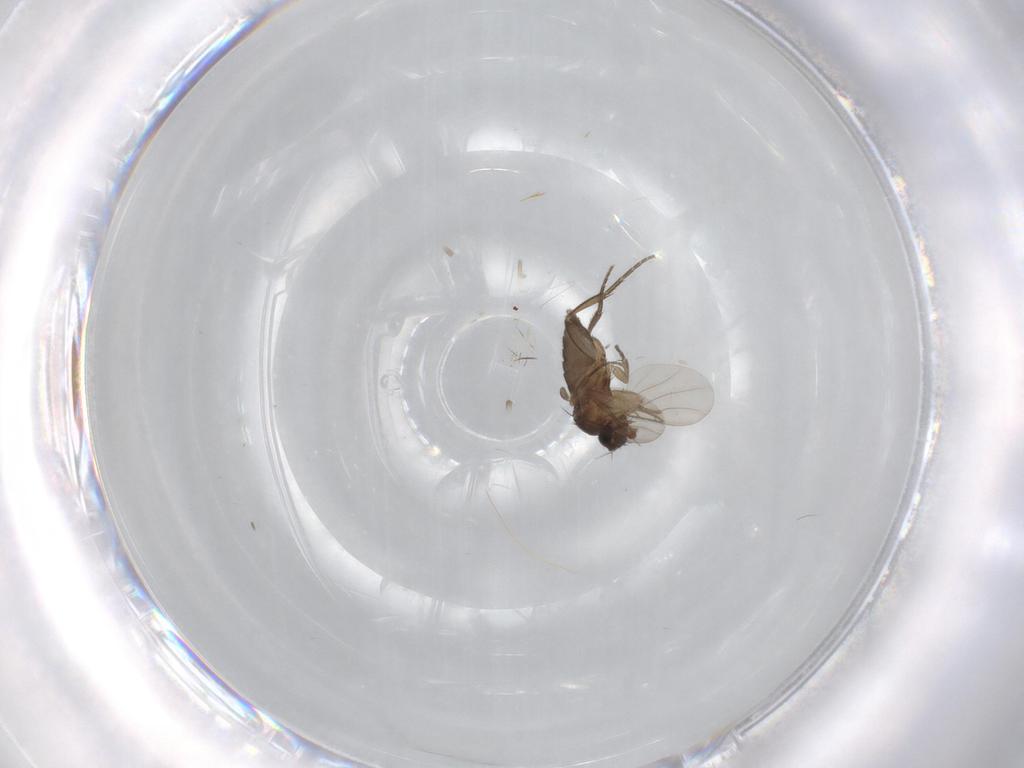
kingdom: Animalia
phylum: Arthropoda
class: Insecta
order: Diptera
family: Phoridae
